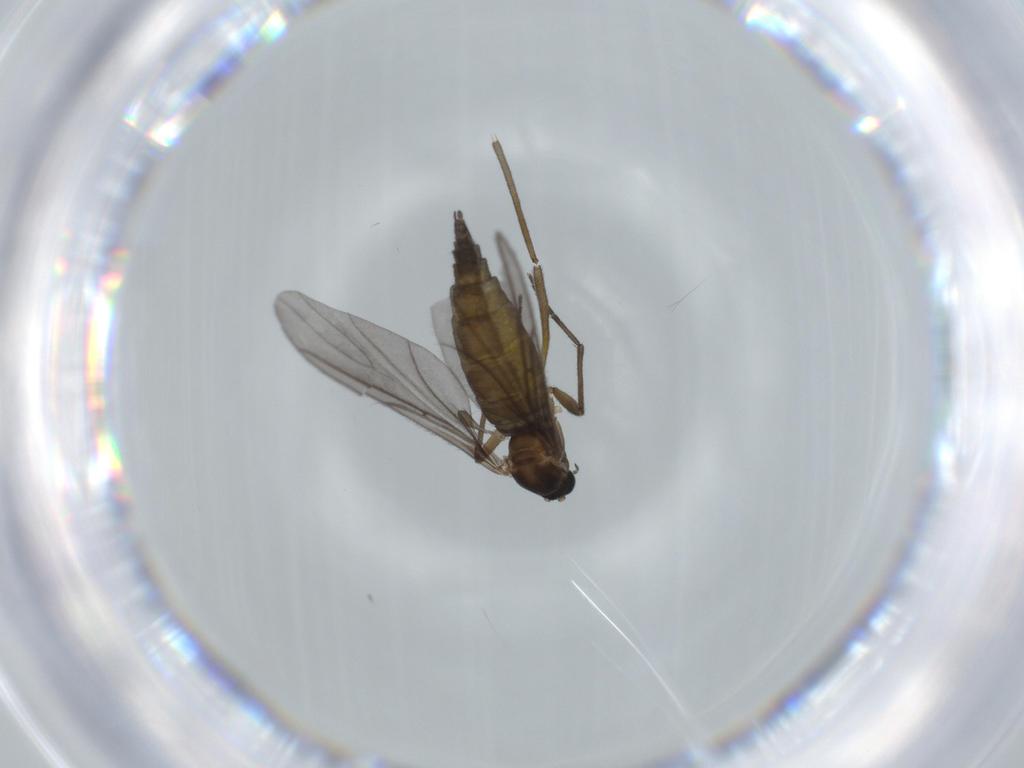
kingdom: Animalia
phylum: Arthropoda
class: Insecta
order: Diptera
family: Sciaridae
